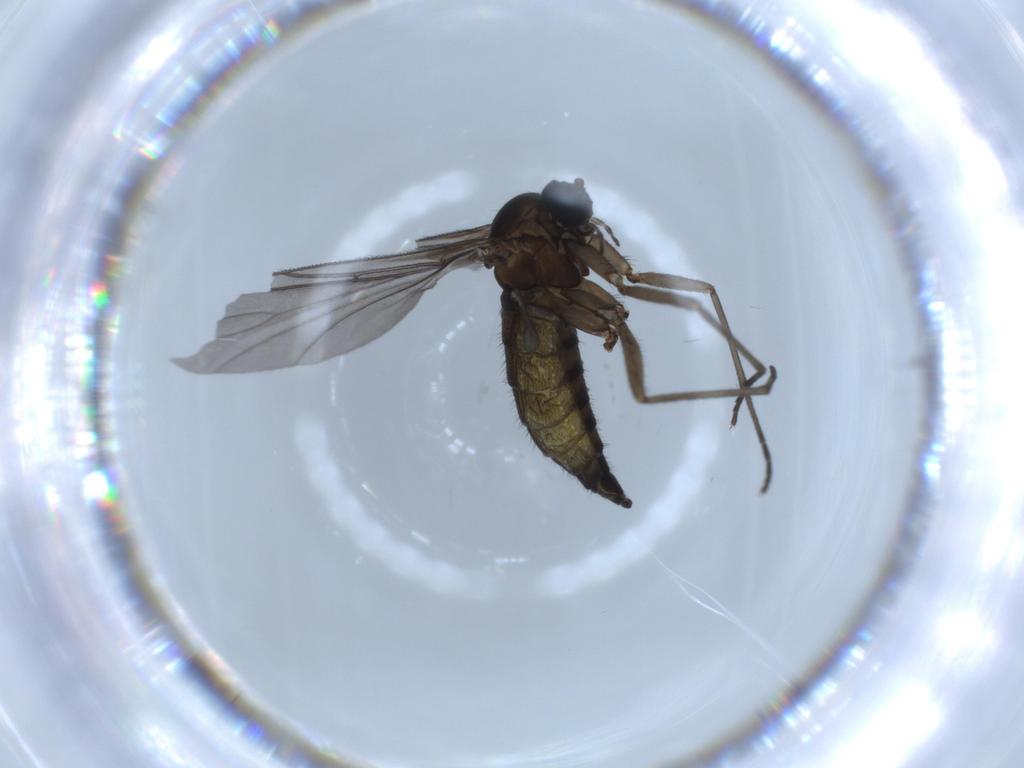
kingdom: Animalia
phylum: Arthropoda
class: Insecta
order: Diptera
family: Sciaridae
